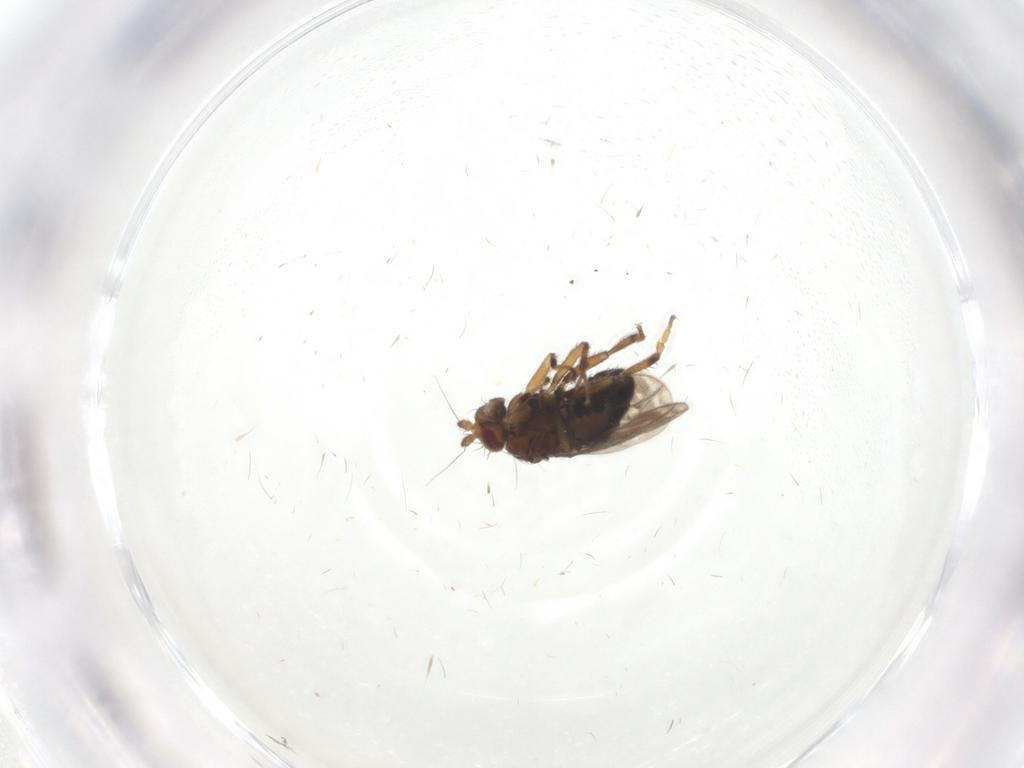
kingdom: Animalia
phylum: Arthropoda
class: Insecta
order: Diptera
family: Sphaeroceridae
